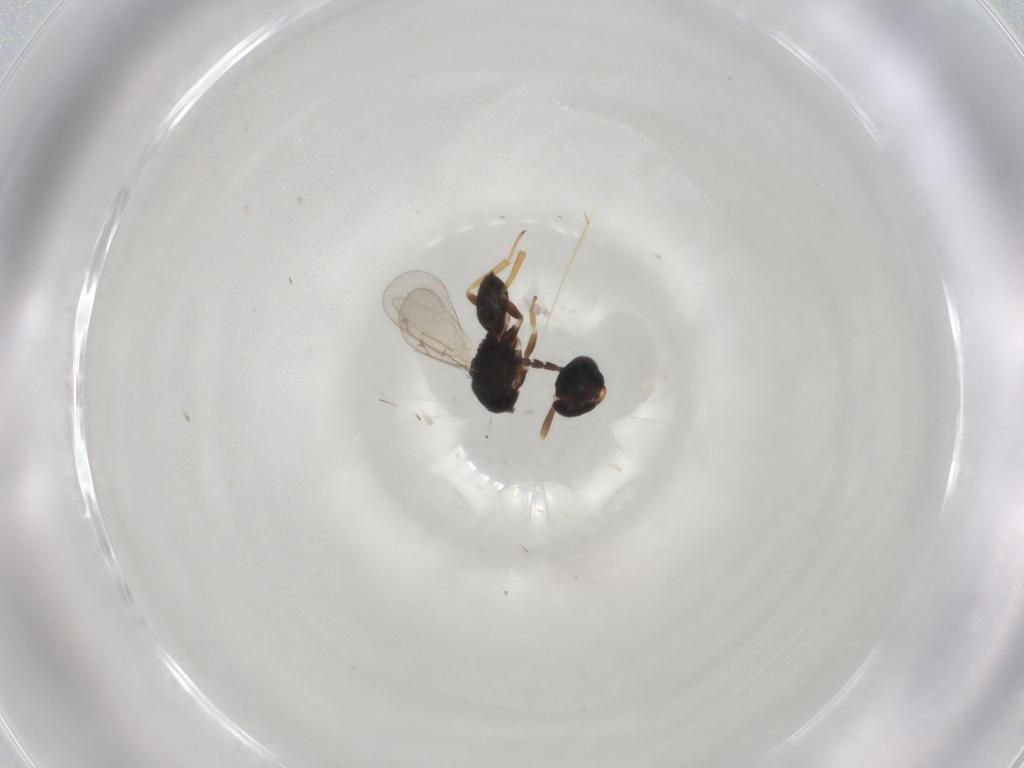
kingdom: Animalia
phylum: Arthropoda
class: Insecta
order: Hymenoptera
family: Eulophidae
